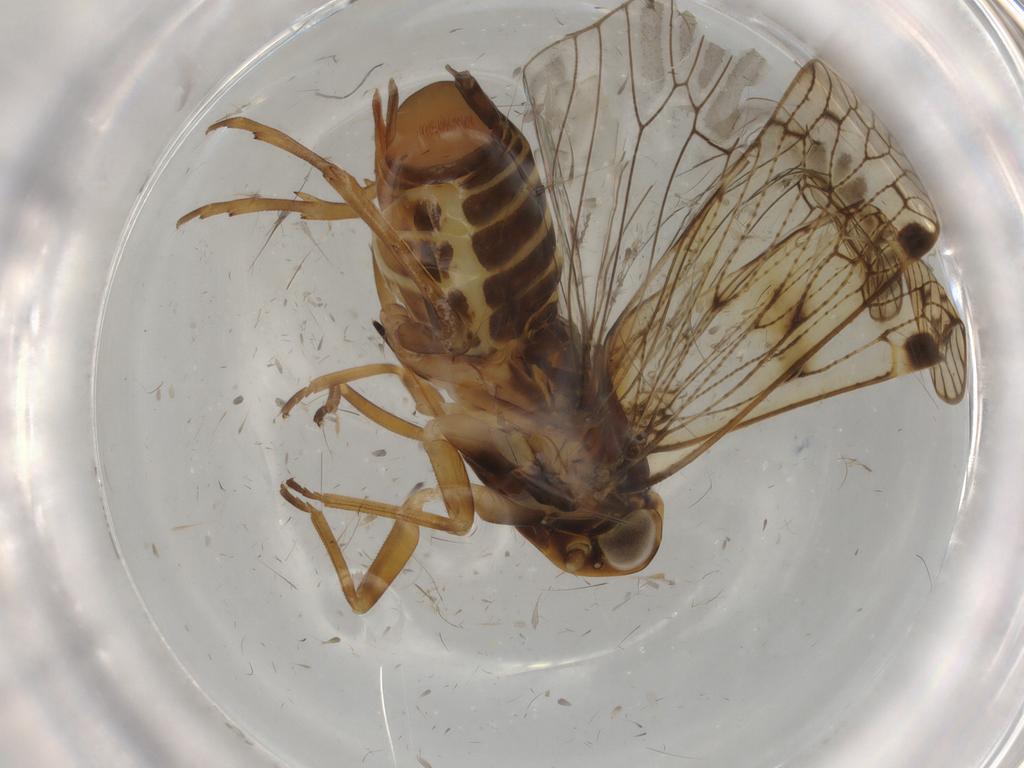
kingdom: Animalia
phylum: Arthropoda
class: Insecta
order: Hemiptera
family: Cixiidae
